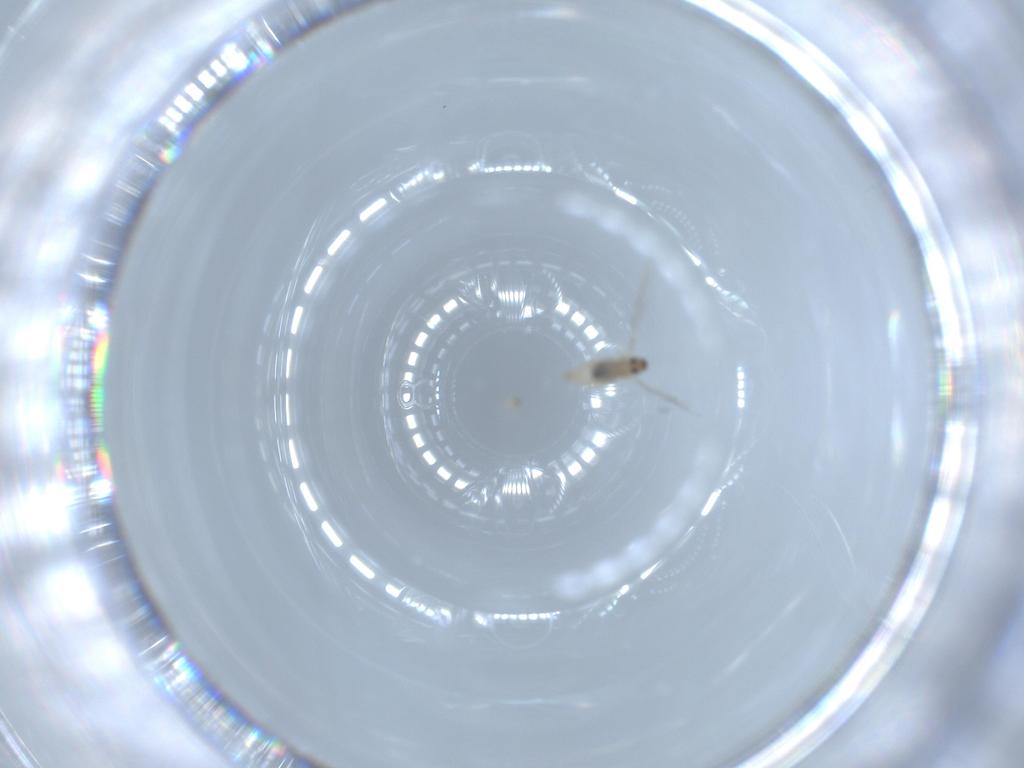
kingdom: Animalia
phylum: Arthropoda
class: Insecta
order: Diptera
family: Cecidomyiidae
